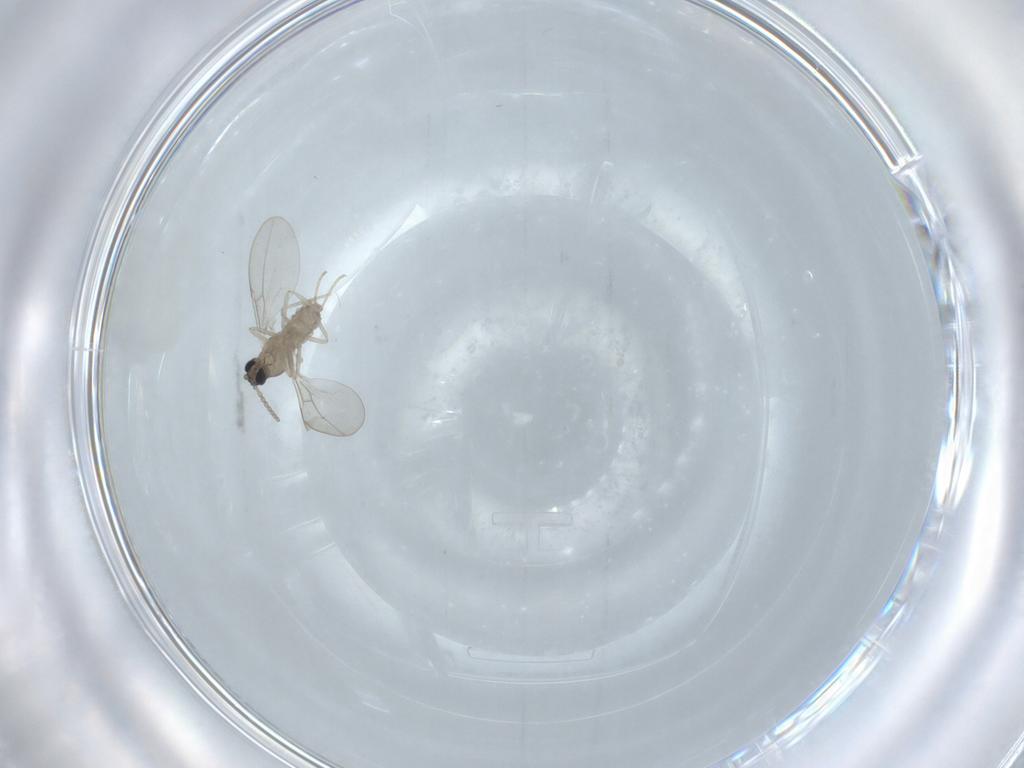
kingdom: Animalia
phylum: Arthropoda
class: Insecta
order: Diptera
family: Cecidomyiidae
